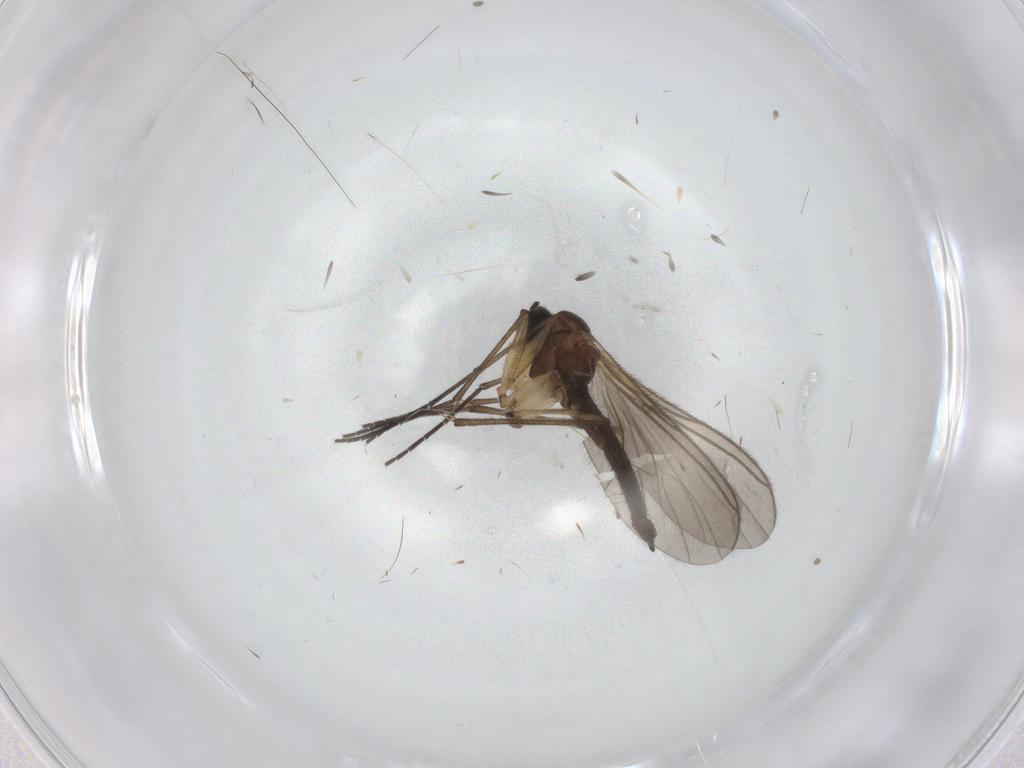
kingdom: Animalia
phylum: Arthropoda
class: Insecta
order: Diptera
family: Sciaridae
